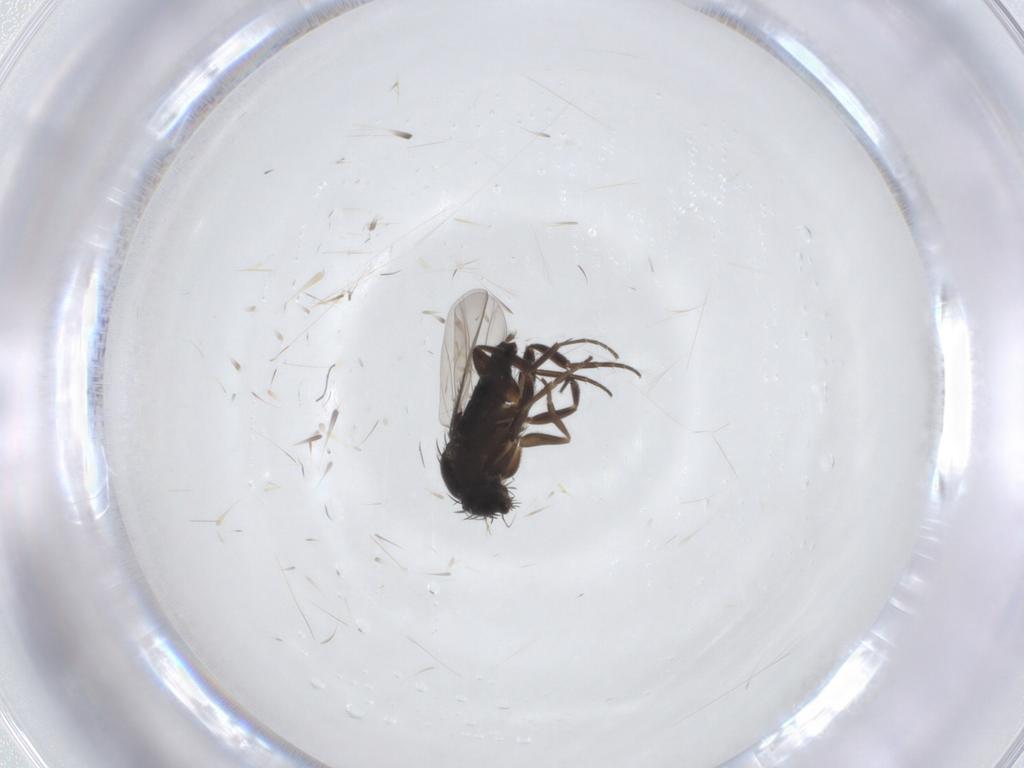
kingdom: Animalia
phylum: Arthropoda
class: Insecta
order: Diptera
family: Phoridae
